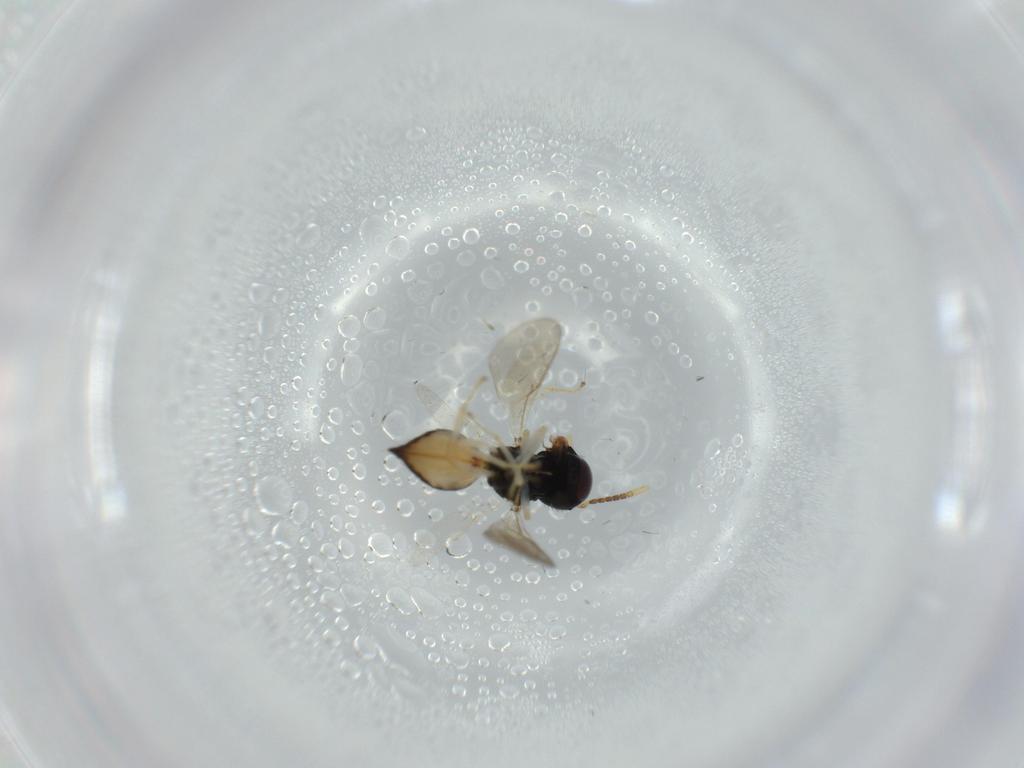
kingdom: Animalia
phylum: Arthropoda
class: Insecta
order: Hymenoptera
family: Pteromalidae
